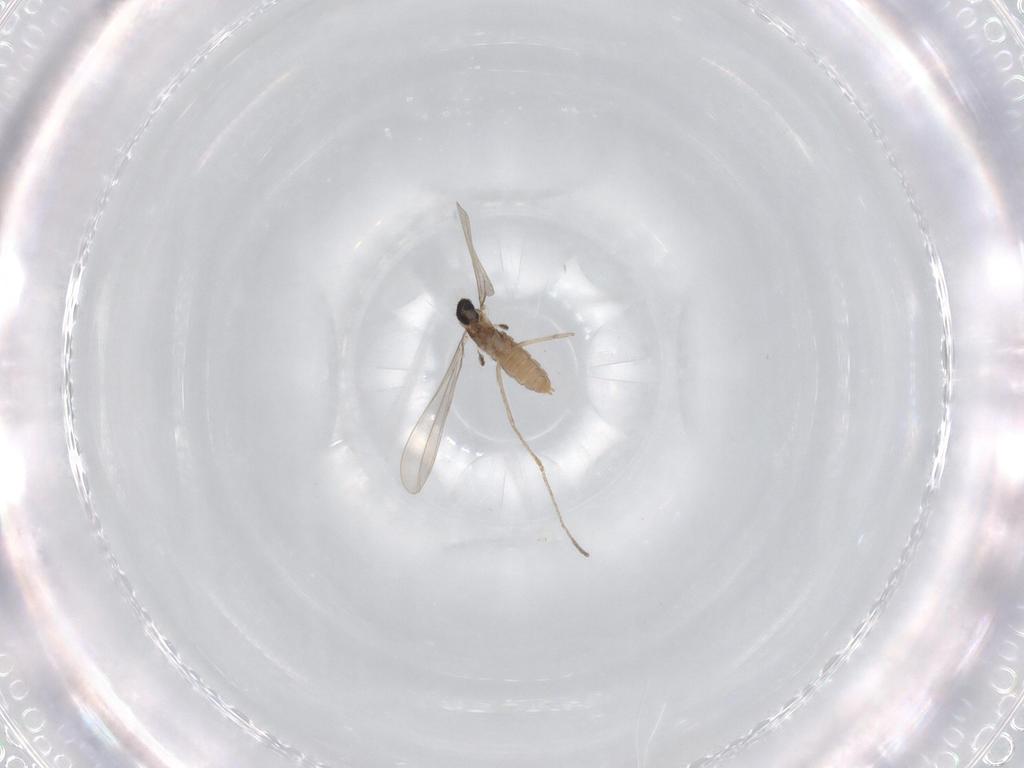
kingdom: Animalia
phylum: Arthropoda
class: Insecta
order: Diptera
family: Cecidomyiidae
